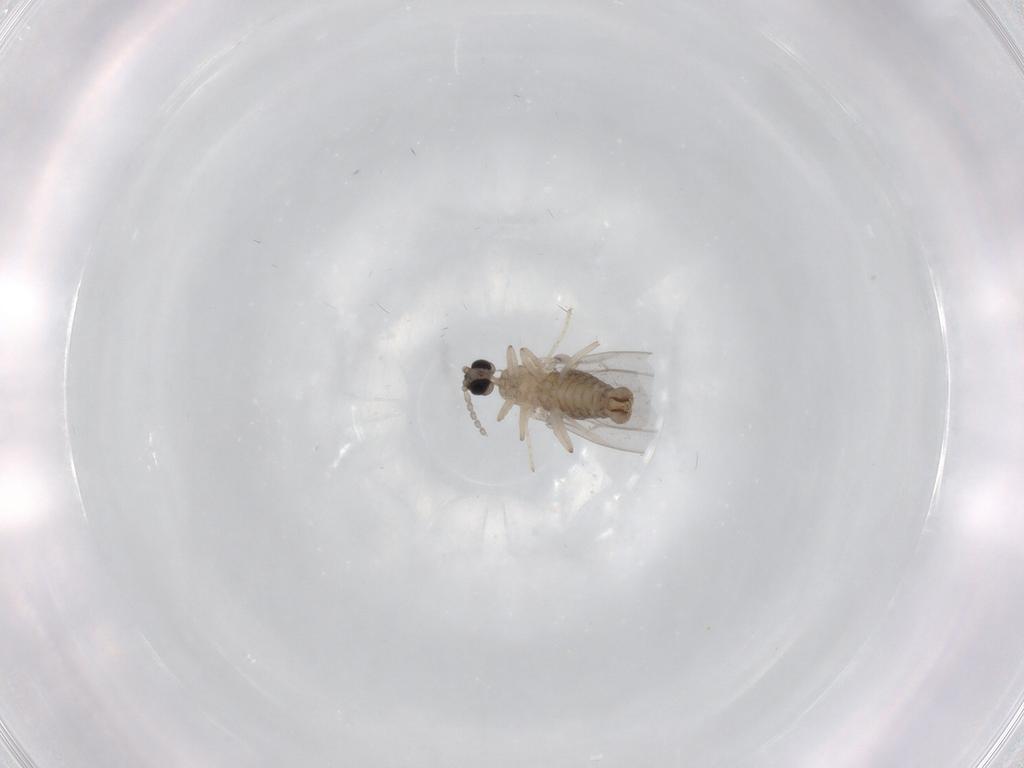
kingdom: Animalia
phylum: Arthropoda
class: Insecta
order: Diptera
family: Cecidomyiidae
